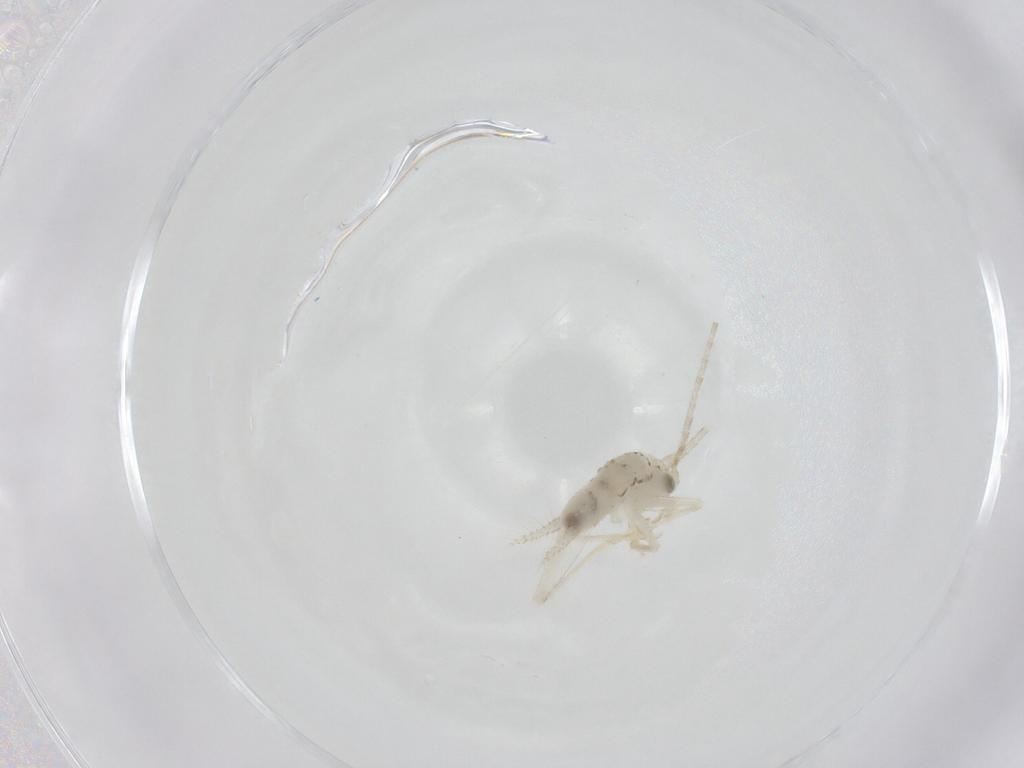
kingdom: Animalia
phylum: Arthropoda
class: Insecta
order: Orthoptera
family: Trigonidiidae
